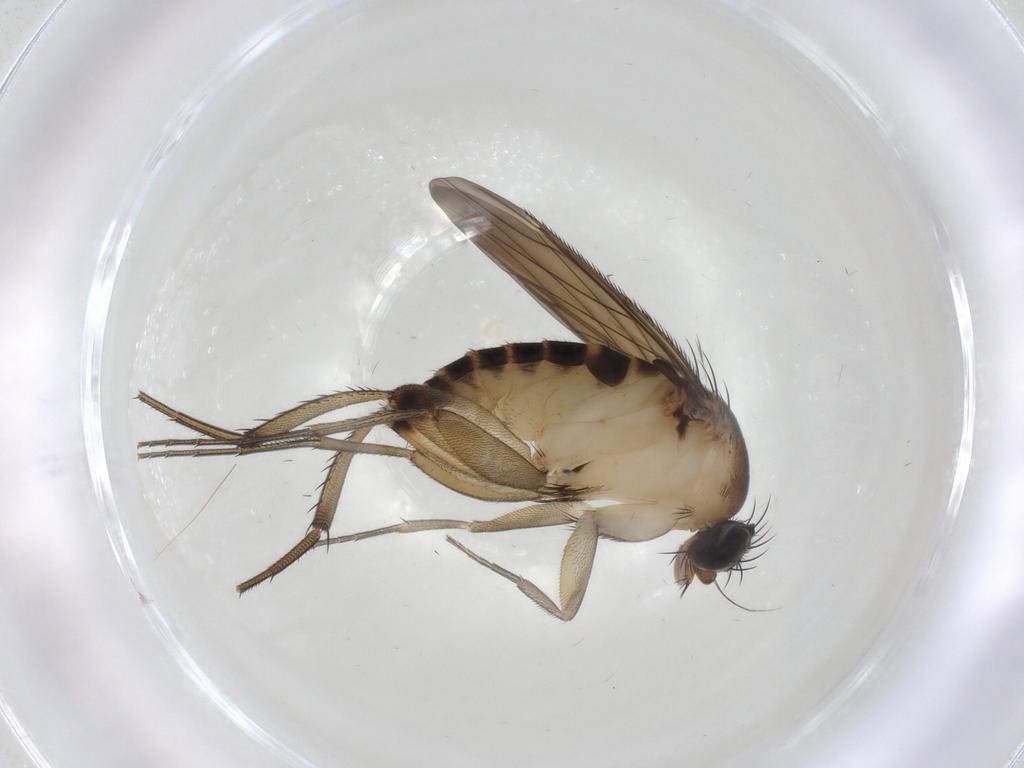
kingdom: Animalia
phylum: Arthropoda
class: Insecta
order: Diptera
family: Phoridae
